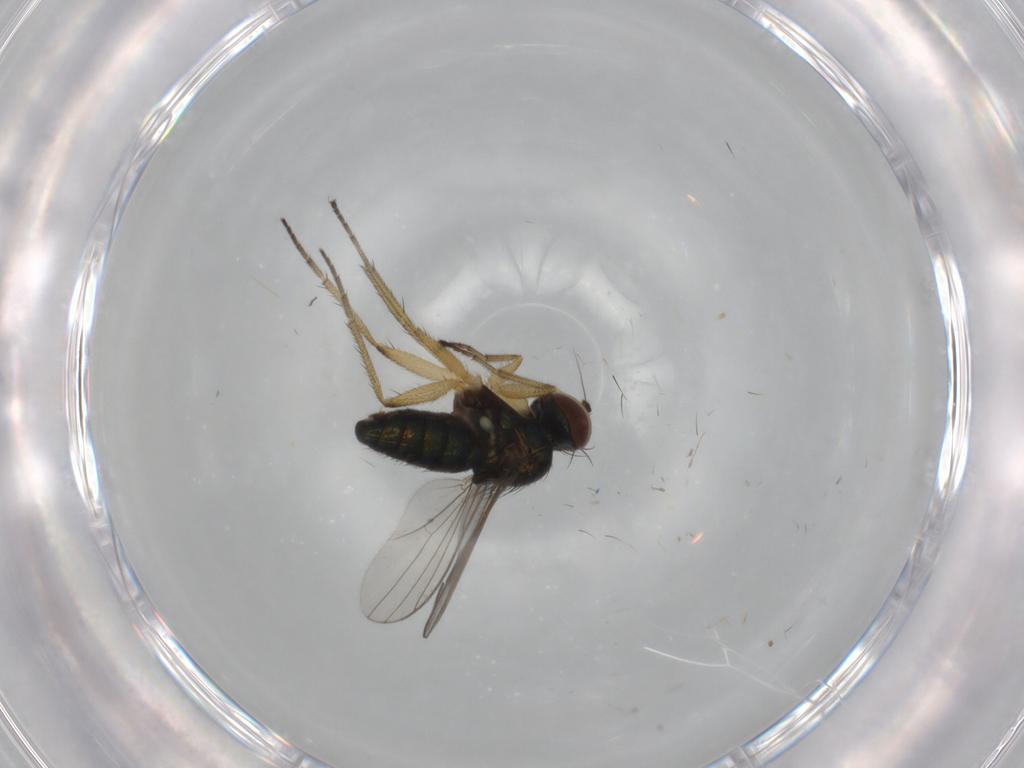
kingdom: Animalia
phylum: Arthropoda
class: Insecta
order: Diptera
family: Dolichopodidae
